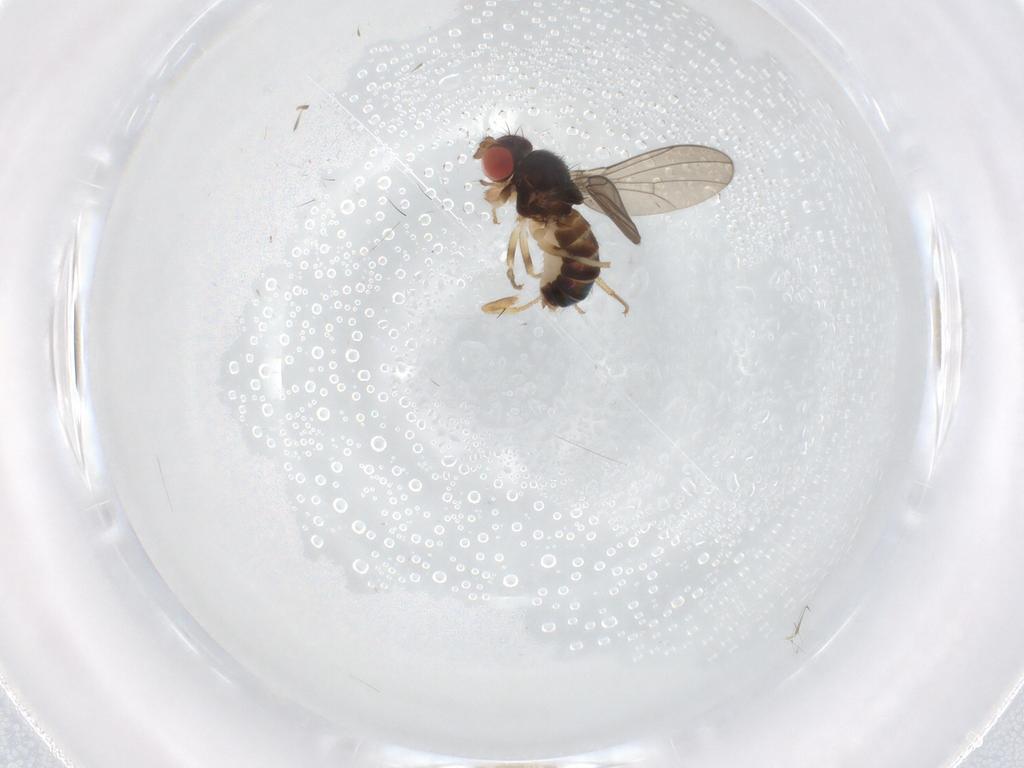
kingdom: Animalia
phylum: Arthropoda
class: Insecta
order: Diptera
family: Drosophilidae
